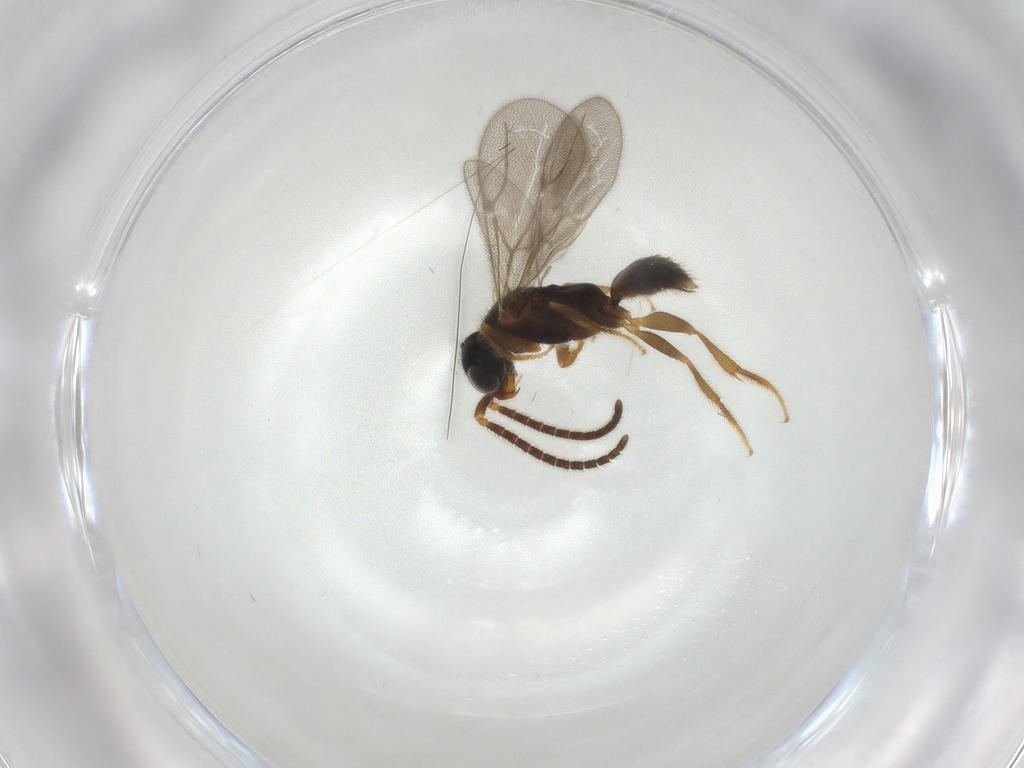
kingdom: Animalia
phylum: Arthropoda
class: Insecta
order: Hymenoptera
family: Bethylidae
